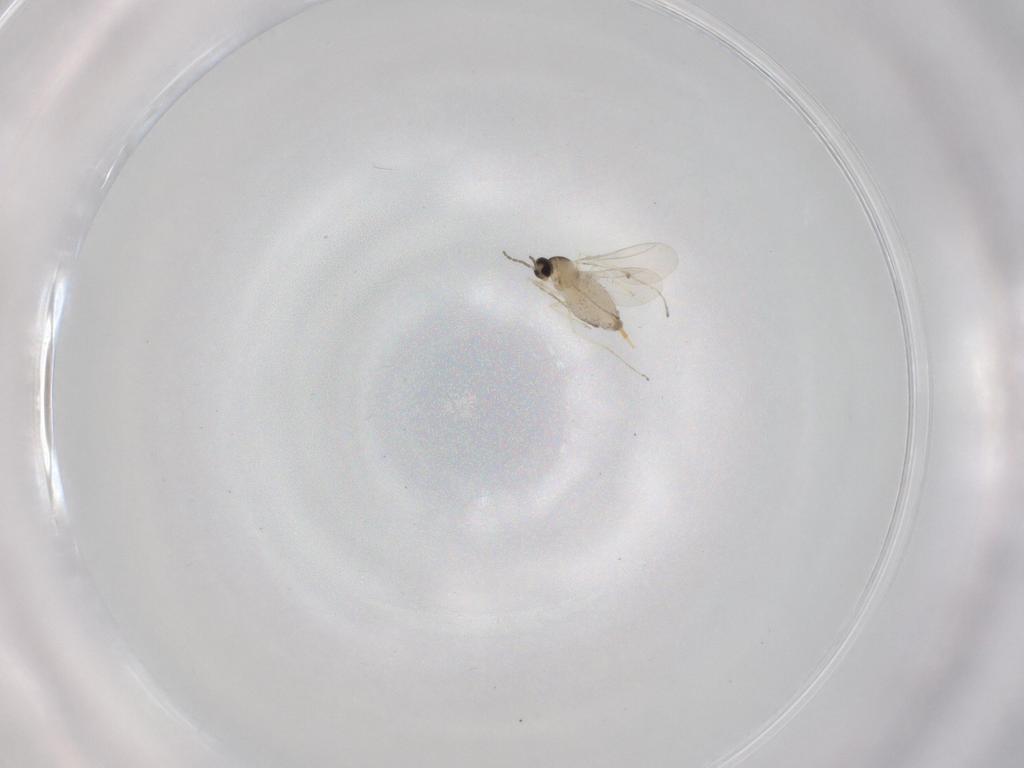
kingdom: Animalia
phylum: Arthropoda
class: Insecta
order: Diptera
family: Cecidomyiidae
